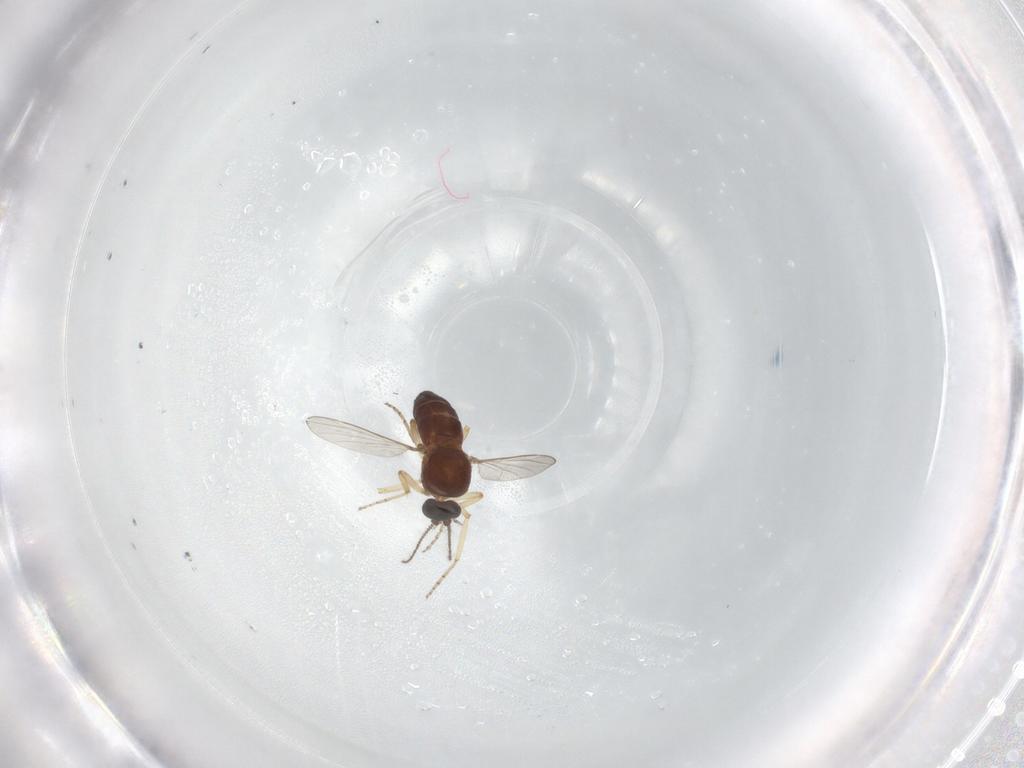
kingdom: Animalia
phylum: Arthropoda
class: Insecta
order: Diptera
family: Ceratopogonidae
